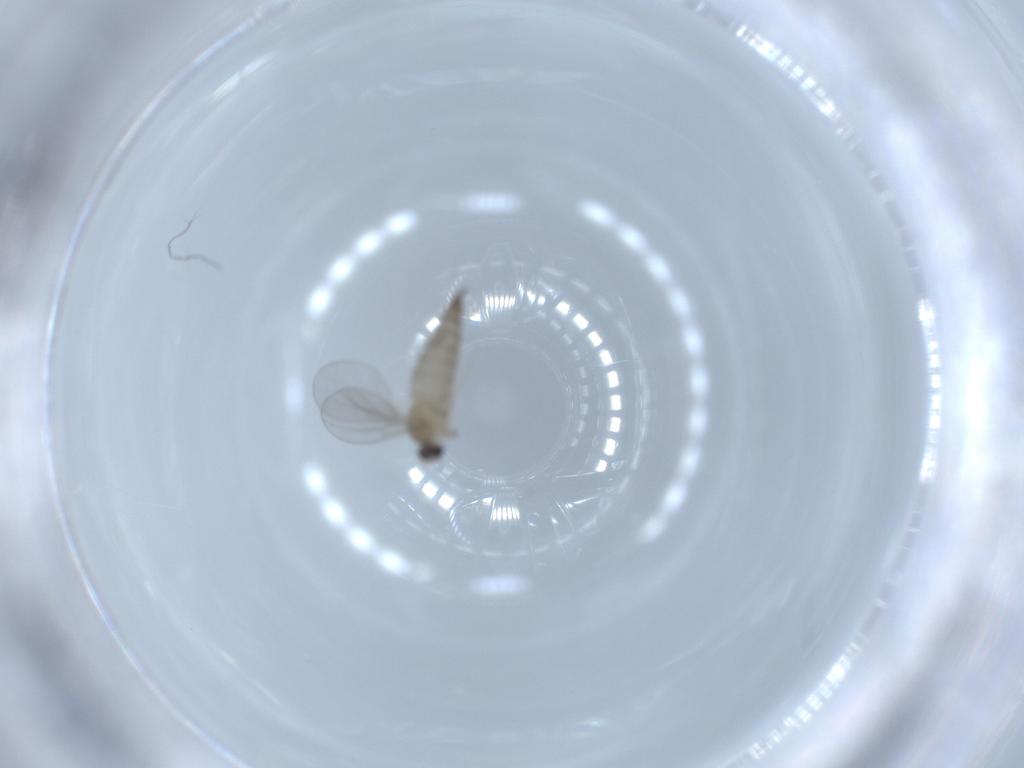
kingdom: Animalia
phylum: Arthropoda
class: Insecta
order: Diptera
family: Cecidomyiidae
